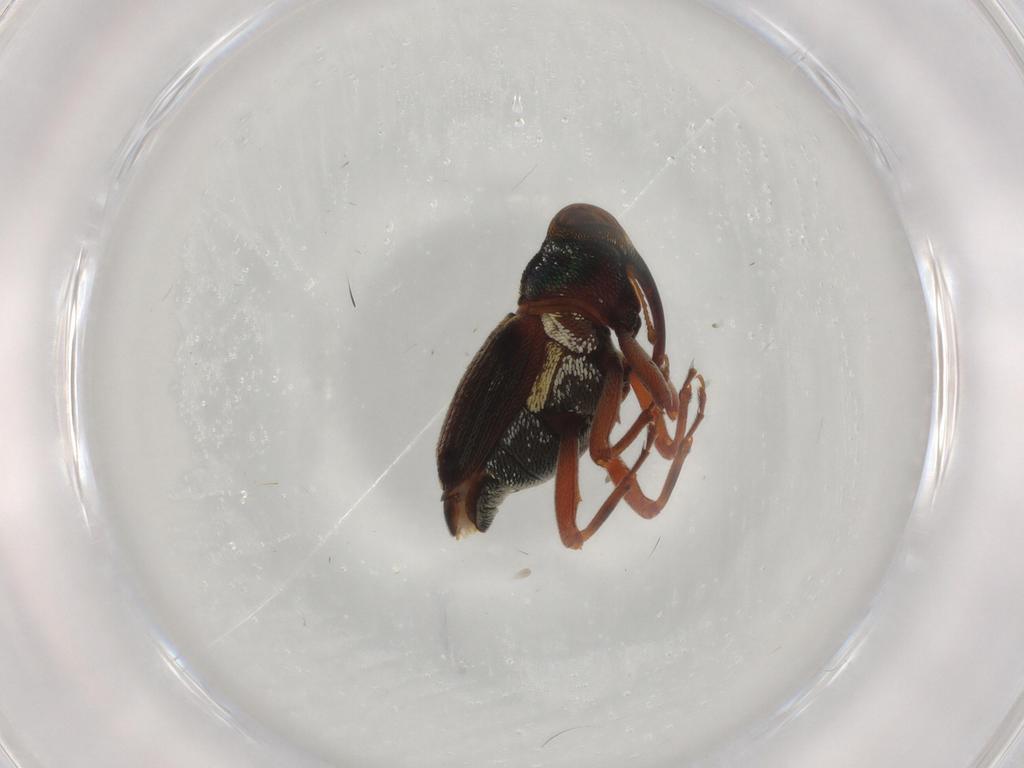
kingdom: Animalia
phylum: Arthropoda
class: Insecta
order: Coleoptera
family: Curculionidae
